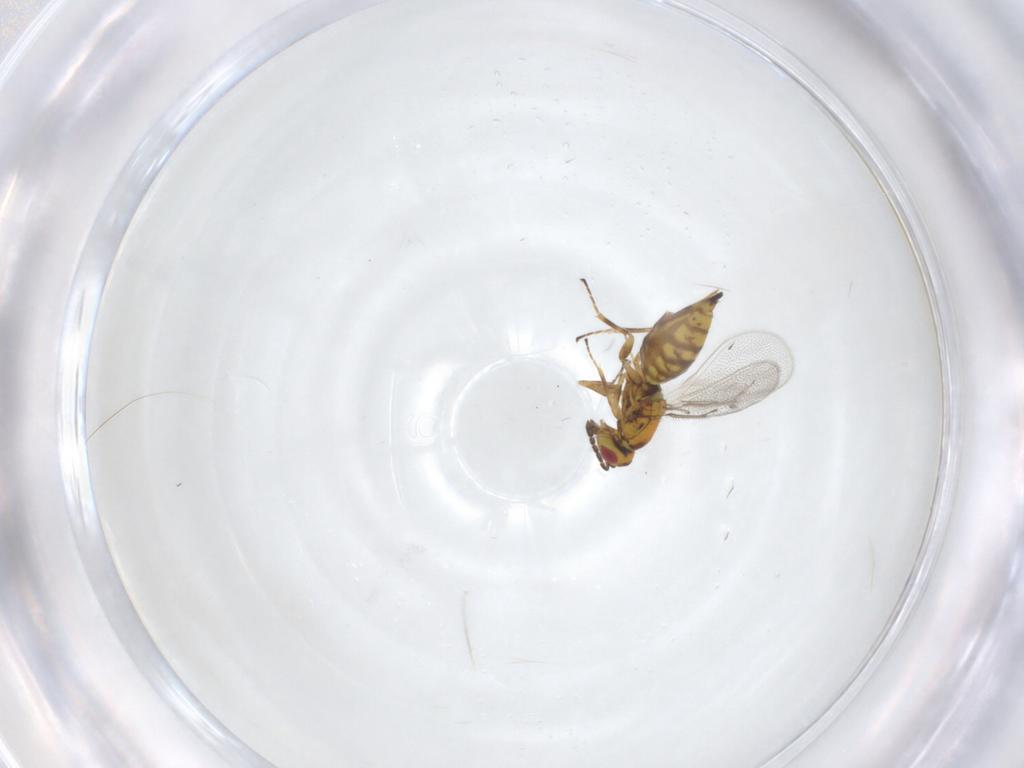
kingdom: Animalia
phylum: Arthropoda
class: Insecta
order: Hymenoptera
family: Eulophidae
